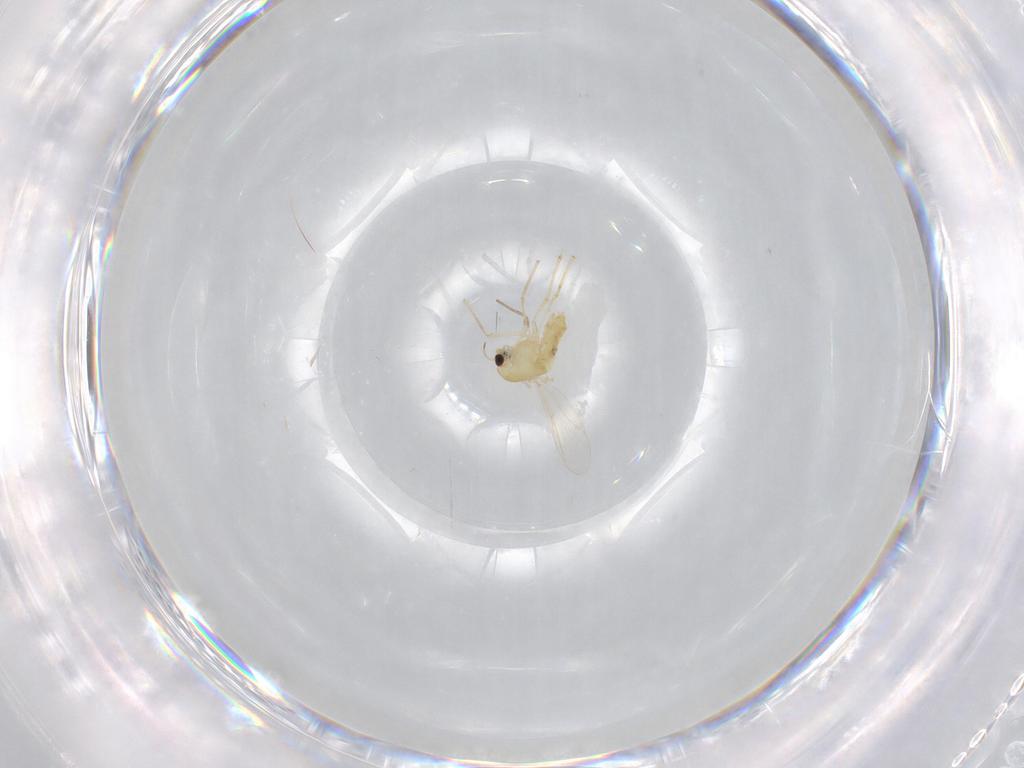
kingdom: Animalia
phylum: Arthropoda
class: Insecta
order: Diptera
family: Chironomidae
